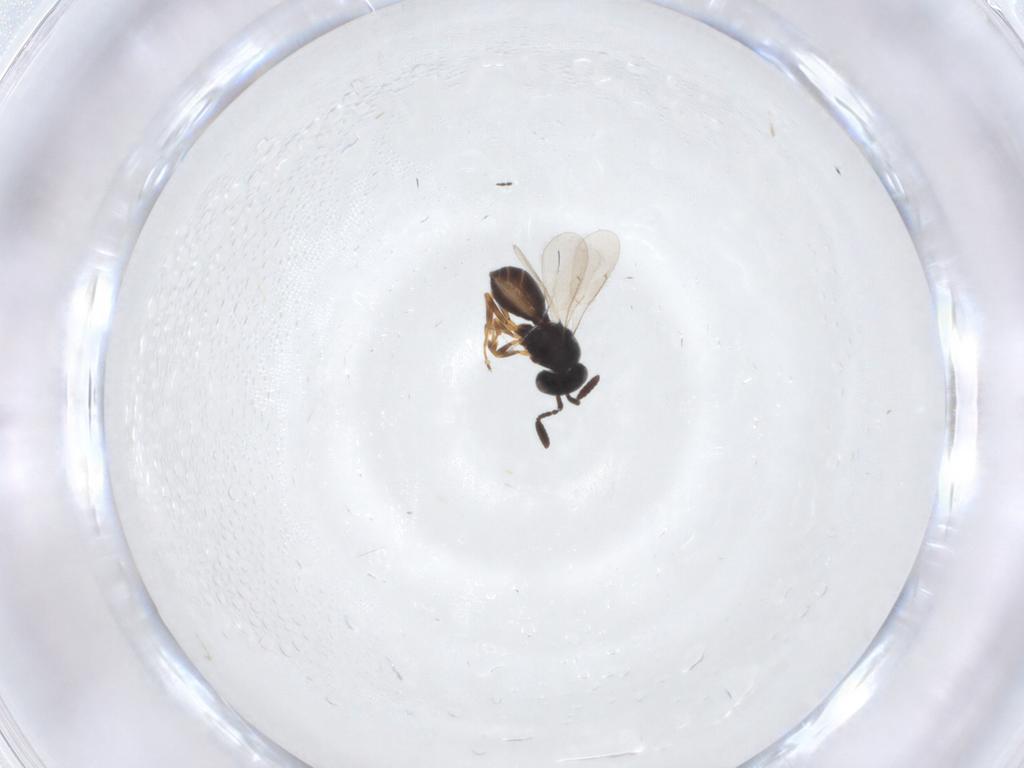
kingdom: Animalia
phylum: Arthropoda
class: Insecta
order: Hymenoptera
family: Scelionidae
